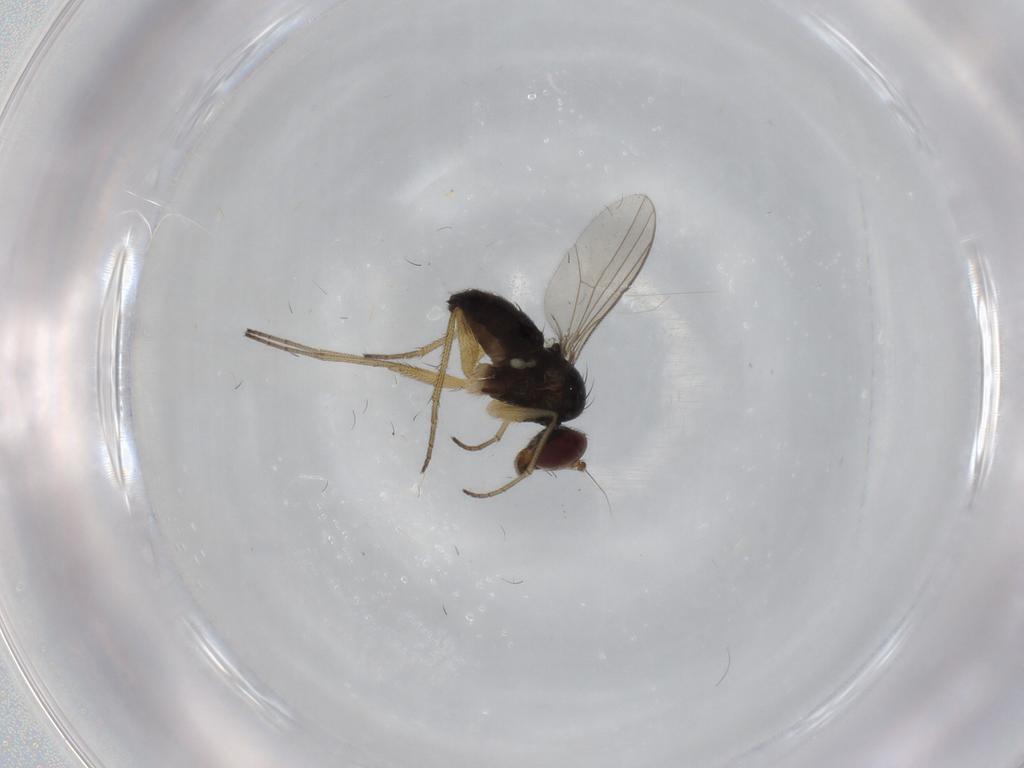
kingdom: Animalia
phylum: Arthropoda
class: Insecta
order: Diptera
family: Dolichopodidae
